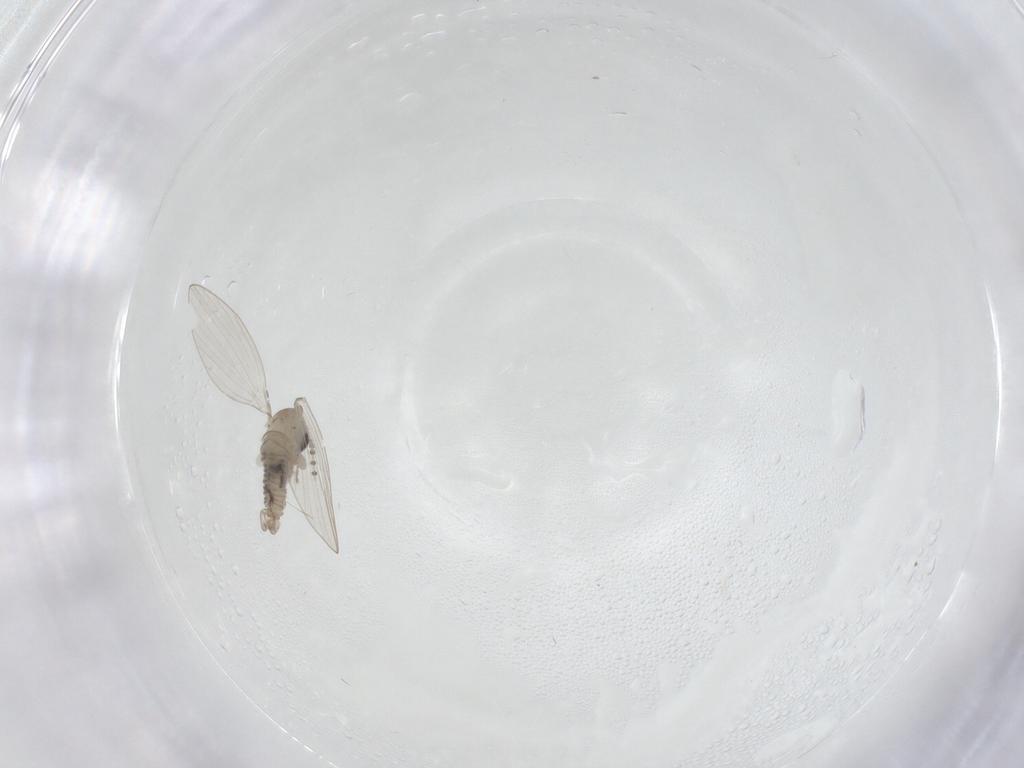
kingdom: Animalia
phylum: Arthropoda
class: Insecta
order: Diptera
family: Psychodidae
